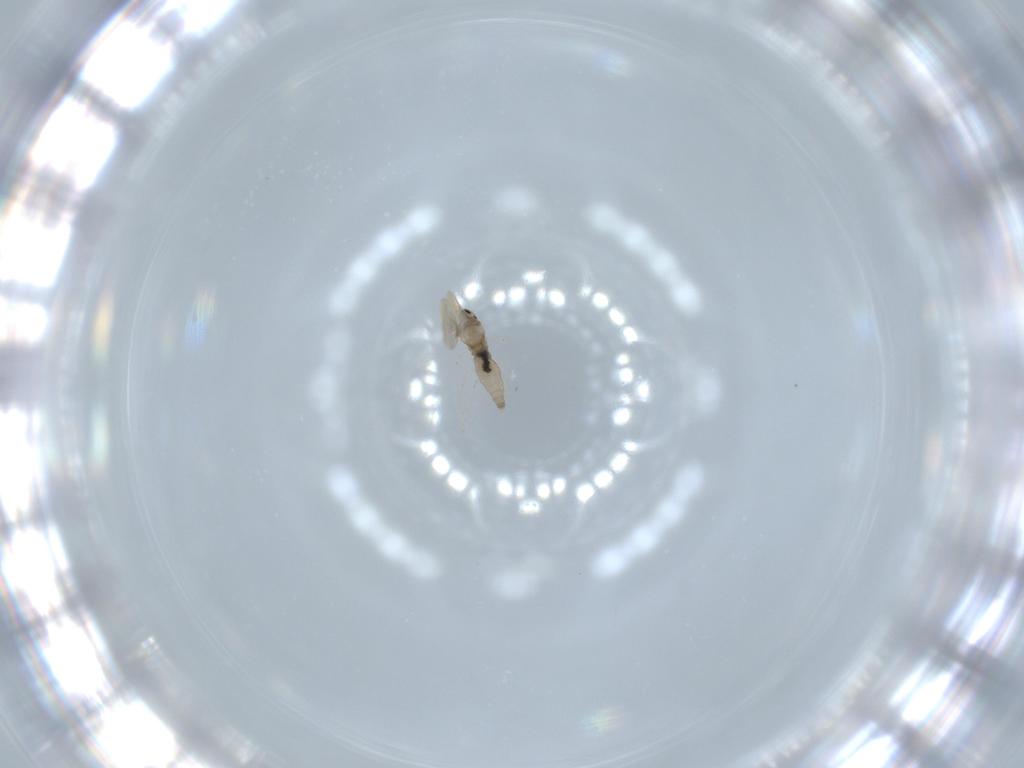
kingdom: Animalia
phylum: Arthropoda
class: Insecta
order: Diptera
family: Cecidomyiidae
